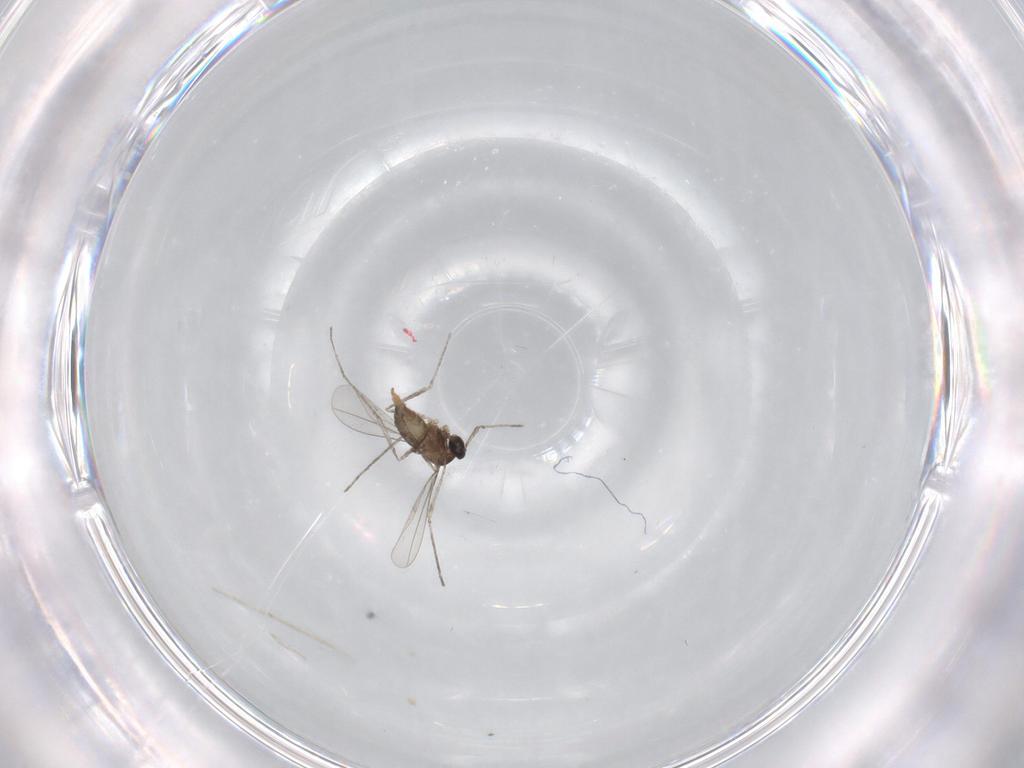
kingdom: Animalia
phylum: Arthropoda
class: Insecta
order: Diptera
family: Cecidomyiidae
